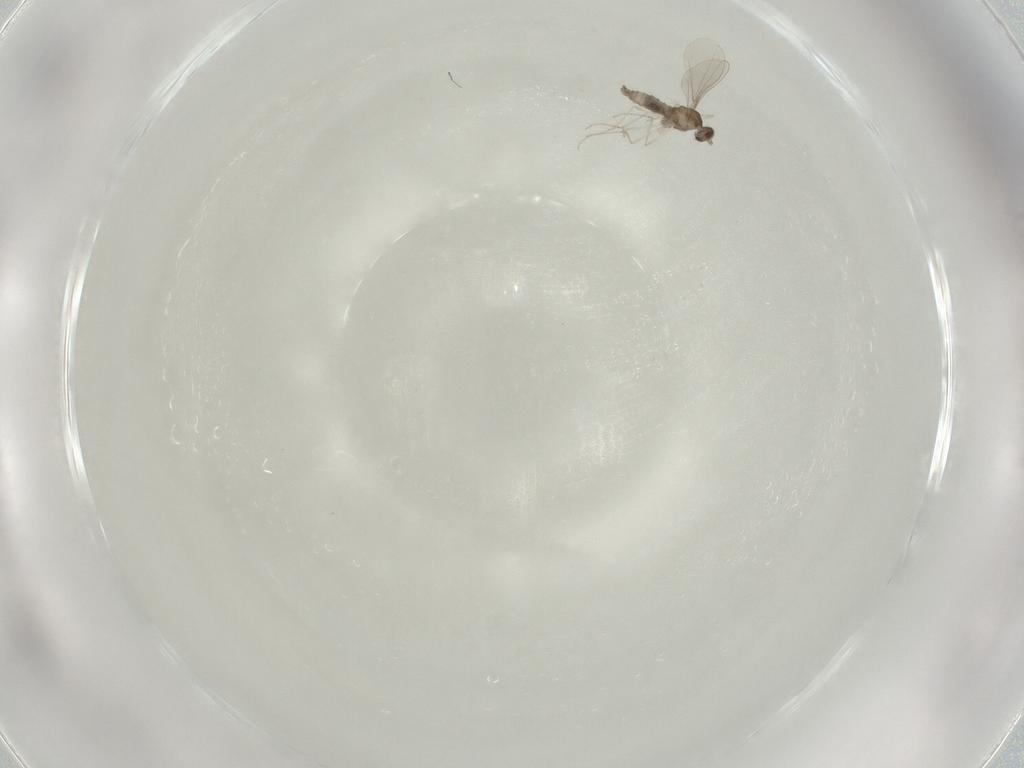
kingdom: Animalia
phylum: Arthropoda
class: Insecta
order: Diptera
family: Cecidomyiidae
